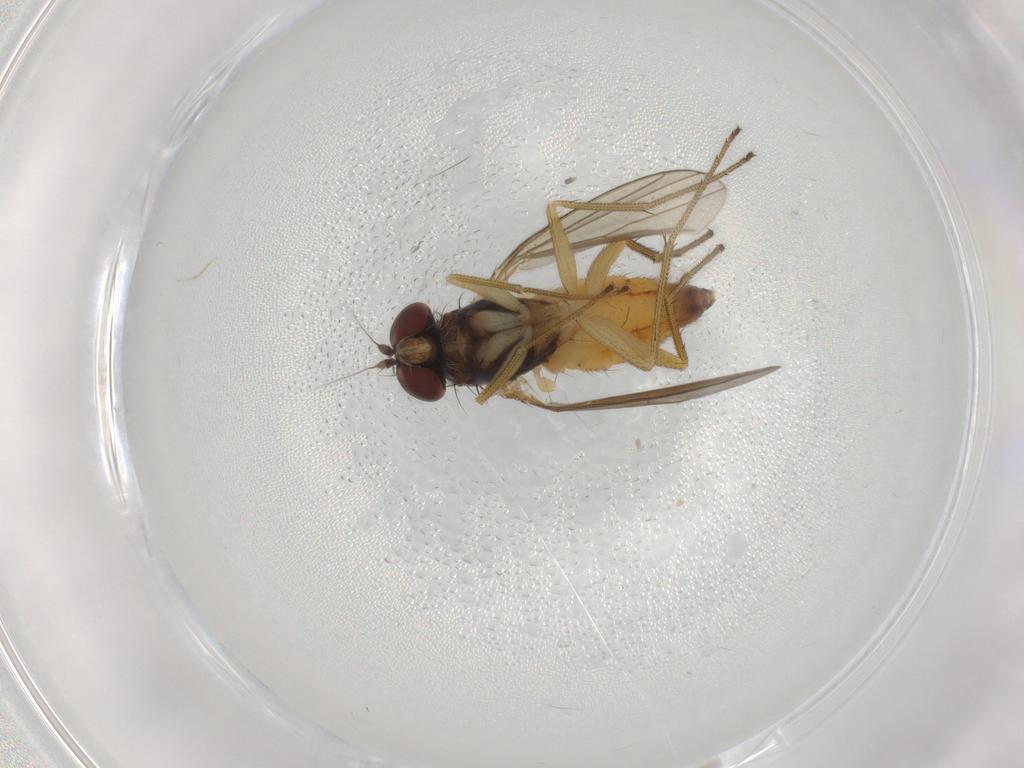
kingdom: Animalia
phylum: Arthropoda
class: Insecta
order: Diptera
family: Dolichopodidae
